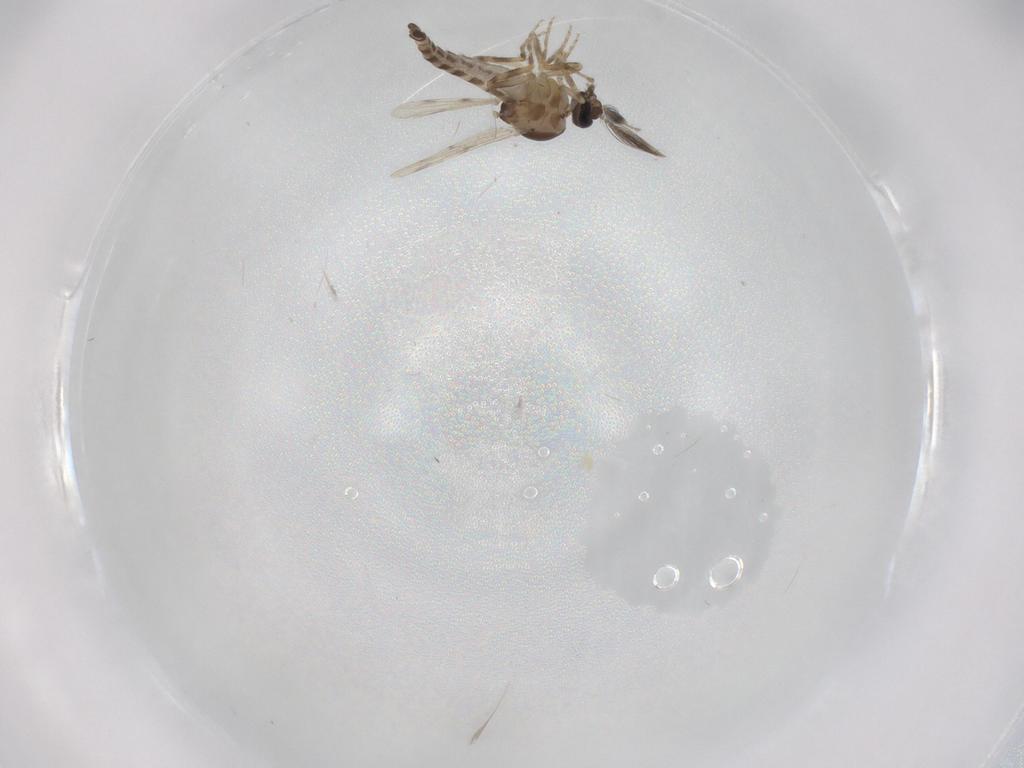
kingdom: Animalia
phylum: Arthropoda
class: Insecta
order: Diptera
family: Ceratopogonidae
